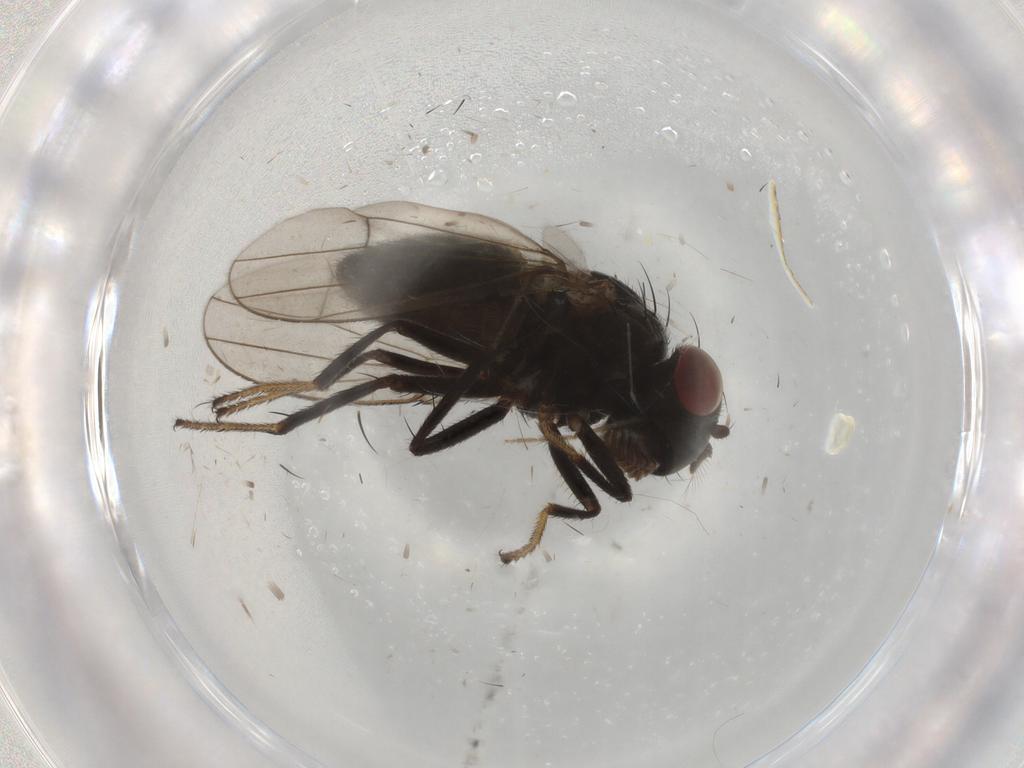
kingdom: Animalia
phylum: Arthropoda
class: Insecta
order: Diptera
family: Ephydridae
